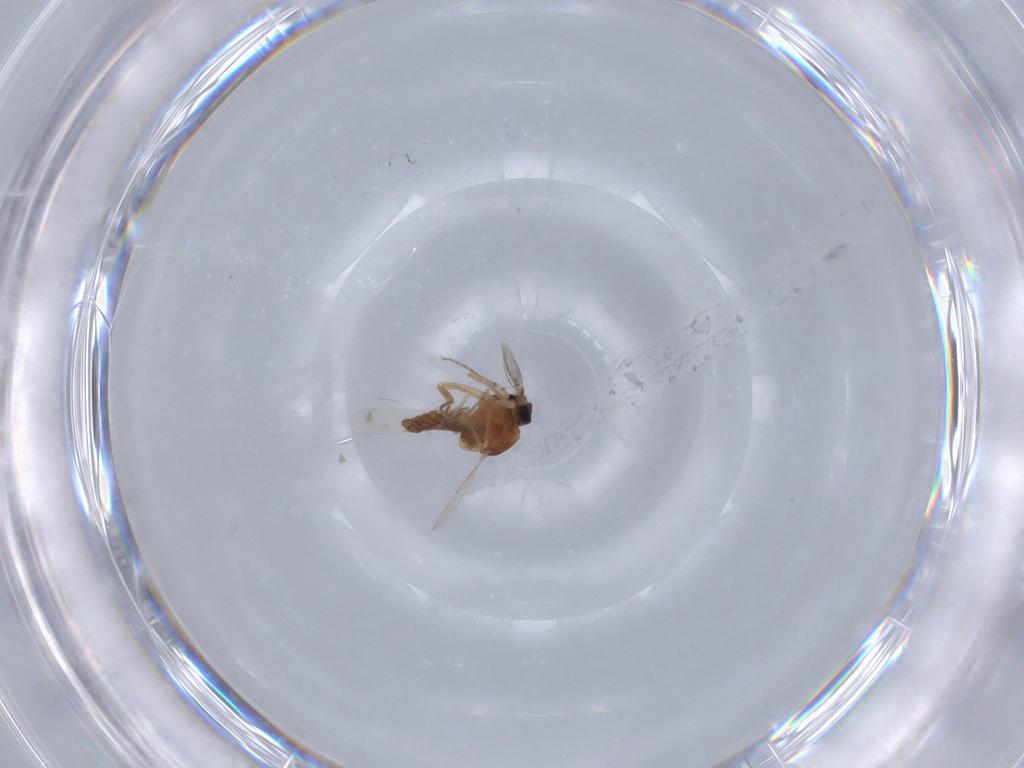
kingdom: Animalia
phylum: Arthropoda
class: Insecta
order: Diptera
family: Ceratopogonidae
